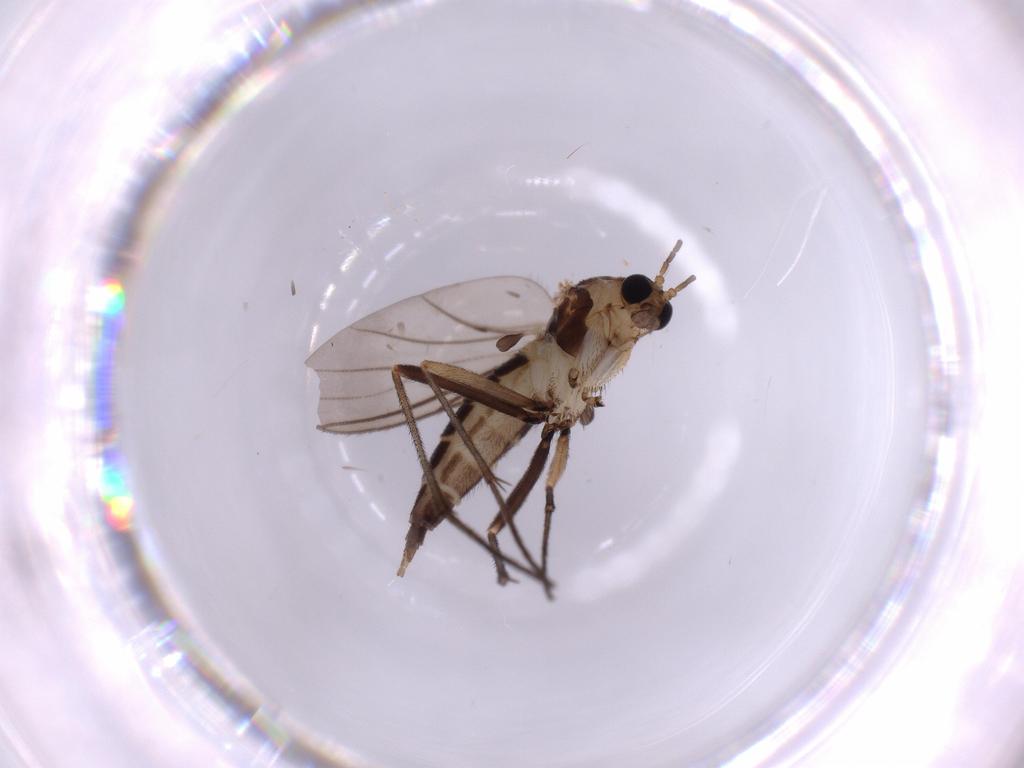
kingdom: Animalia
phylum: Arthropoda
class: Insecta
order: Diptera
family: Sciaridae
